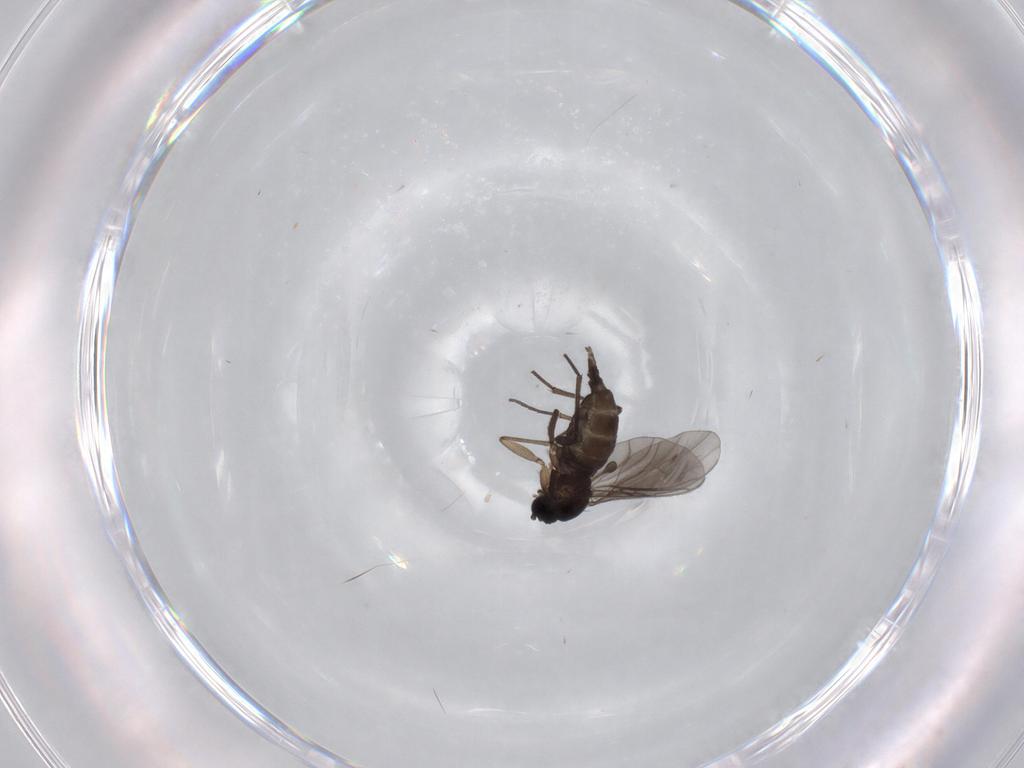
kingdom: Animalia
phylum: Arthropoda
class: Insecta
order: Diptera
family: Sciaridae
